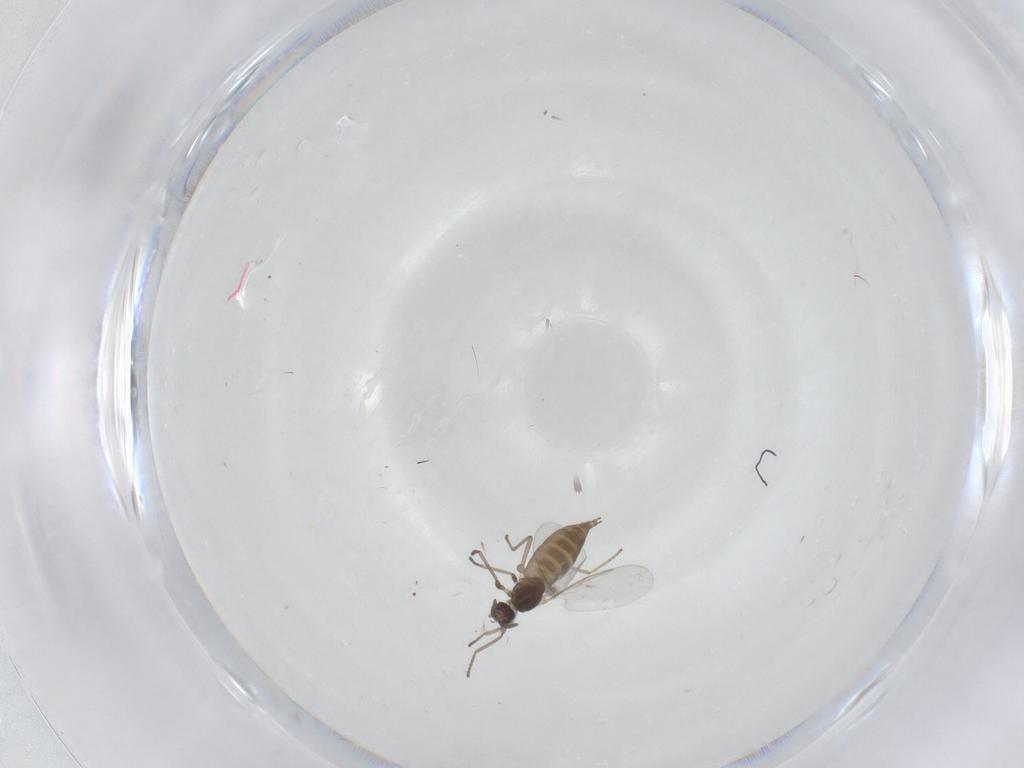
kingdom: Animalia
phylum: Arthropoda
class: Insecta
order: Diptera
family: Cecidomyiidae
